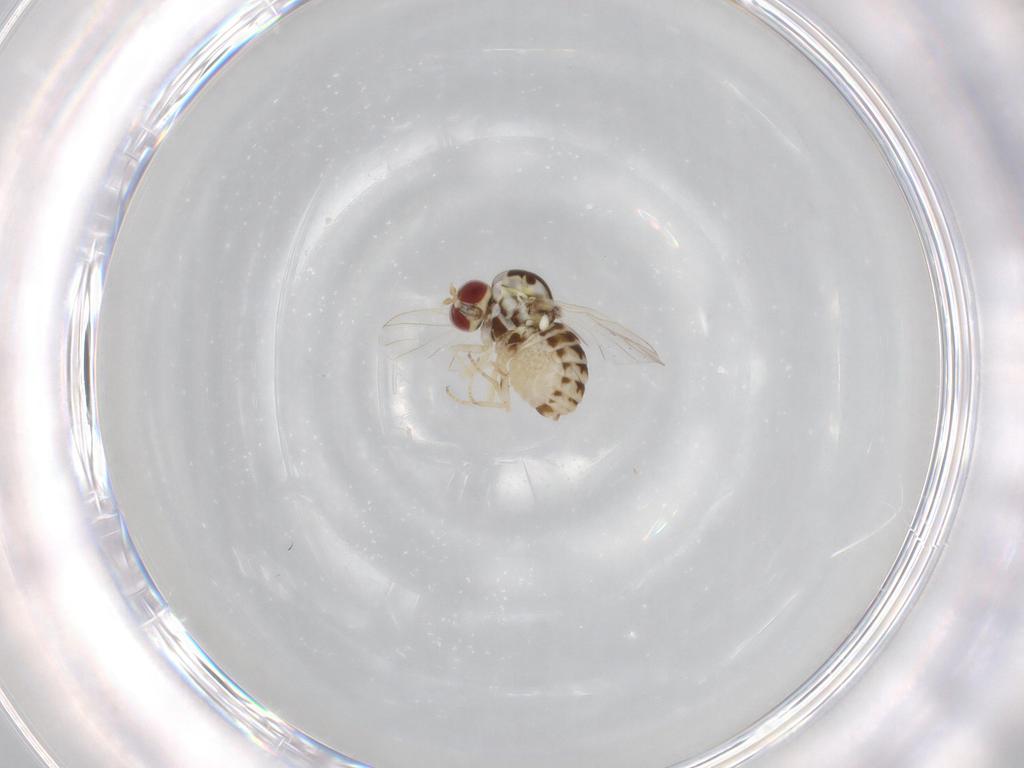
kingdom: Animalia
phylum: Arthropoda
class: Insecta
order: Diptera
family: Bombyliidae
